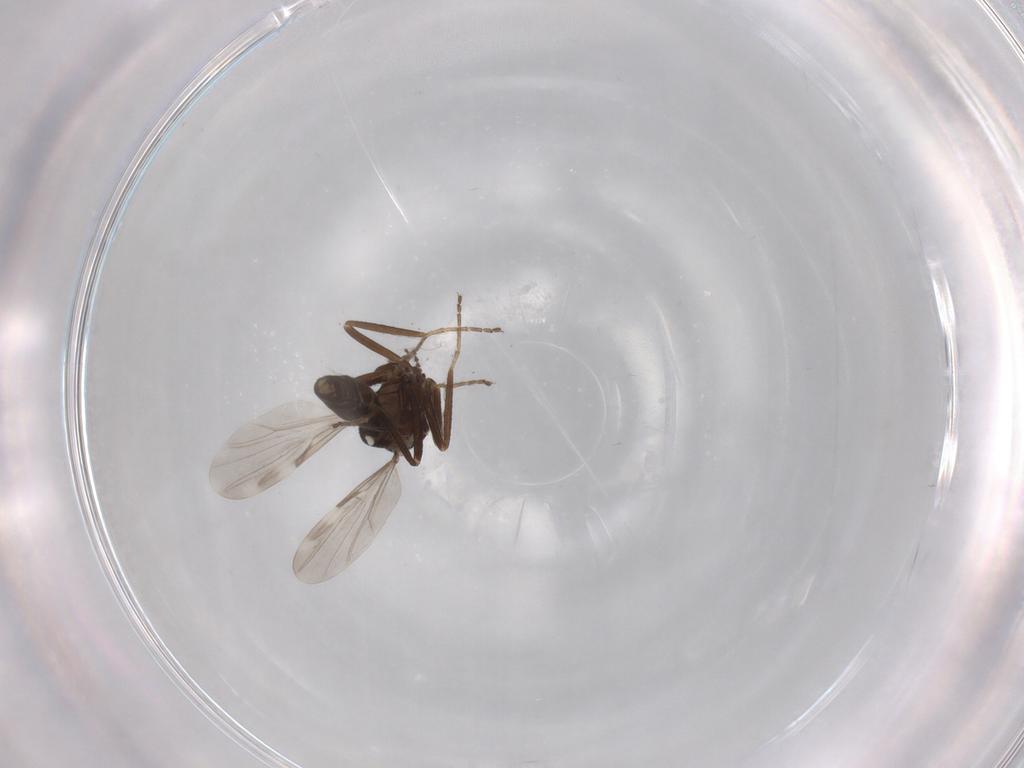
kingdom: Animalia
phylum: Arthropoda
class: Insecta
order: Diptera
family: Ceratopogonidae
